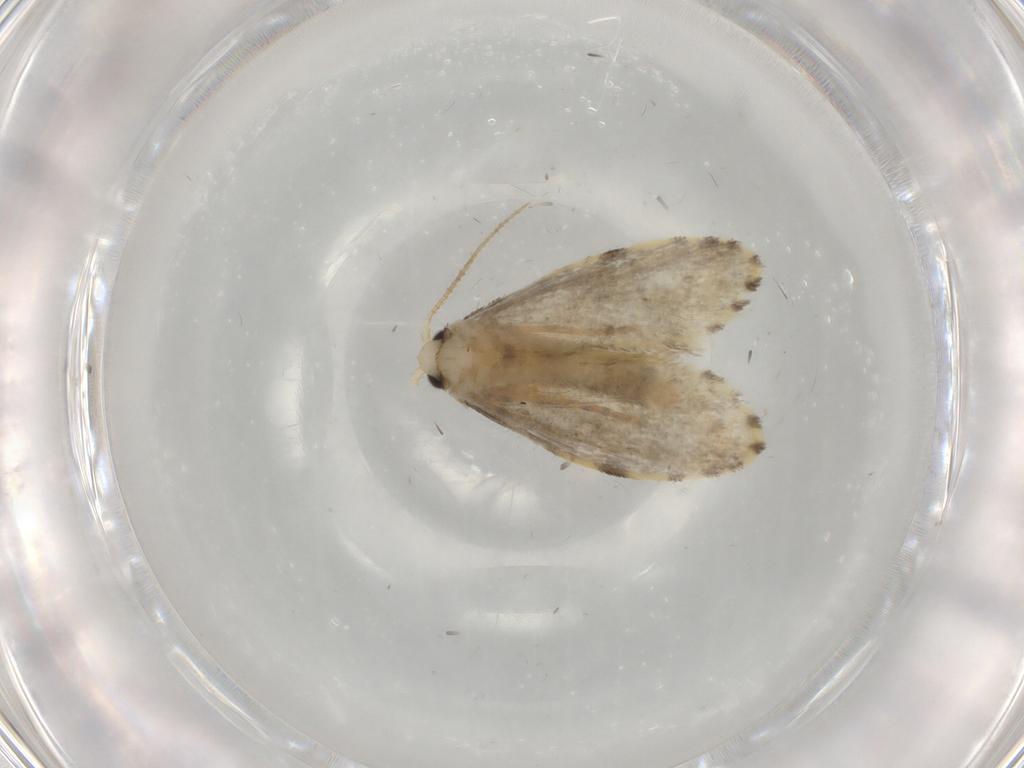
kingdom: Animalia
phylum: Arthropoda
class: Insecta
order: Lepidoptera
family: Psychidae
